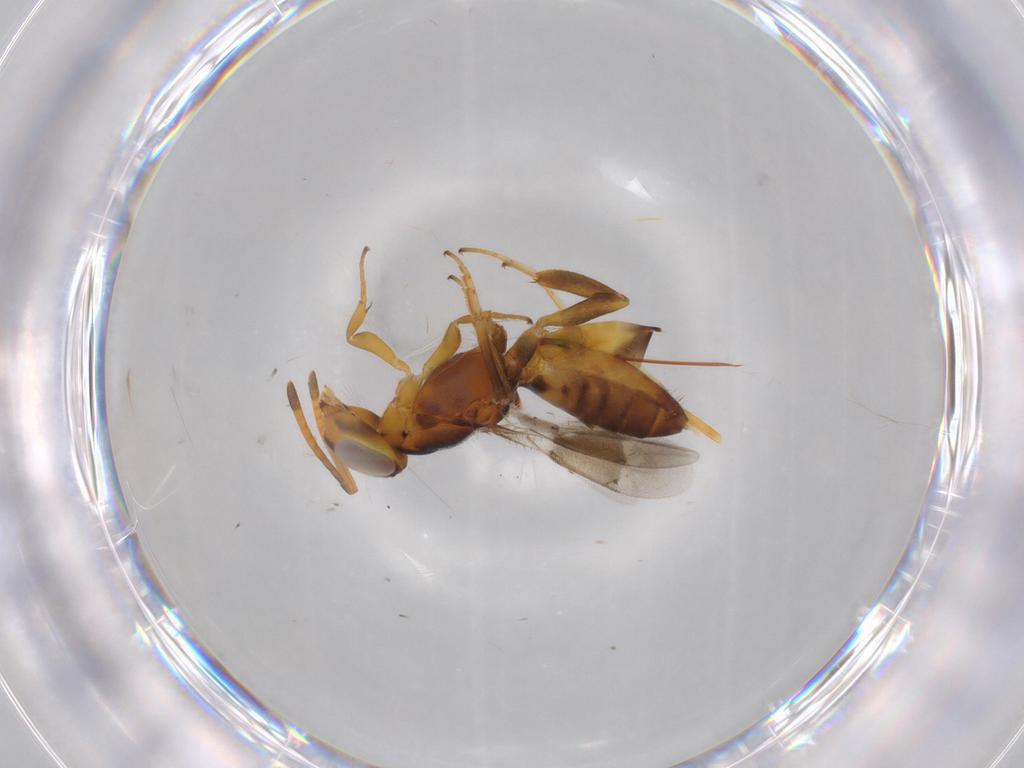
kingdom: Animalia
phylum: Arthropoda
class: Insecta
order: Hymenoptera
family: Eupelmidae
